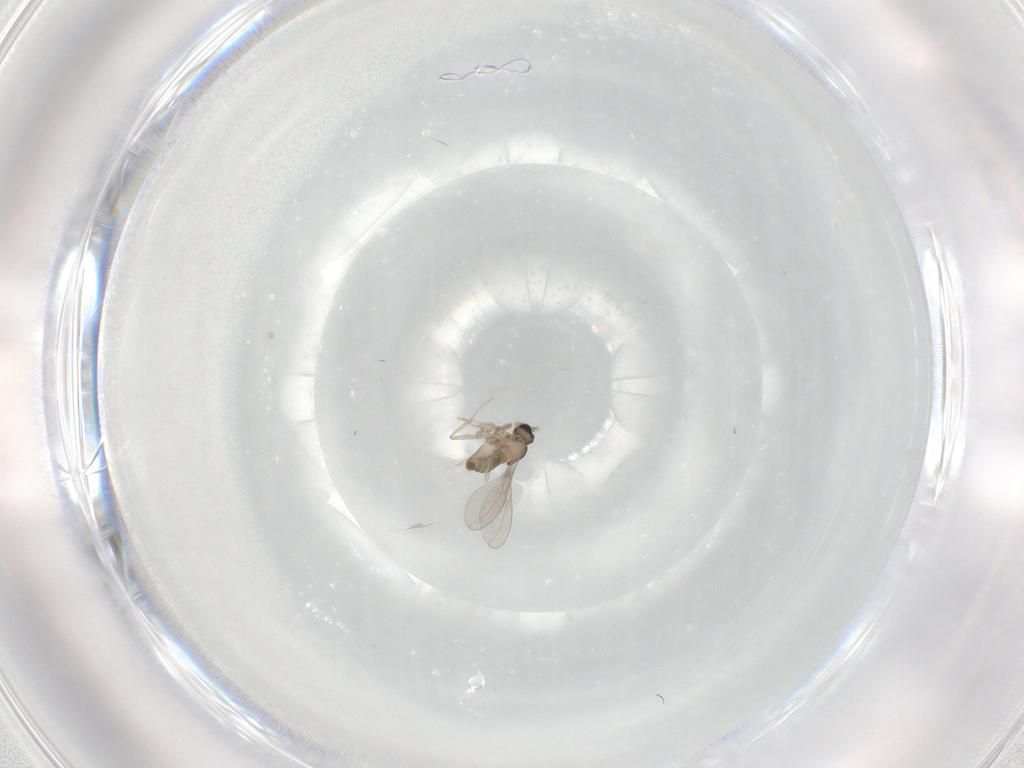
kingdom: Animalia
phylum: Arthropoda
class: Insecta
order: Diptera
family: Cecidomyiidae
